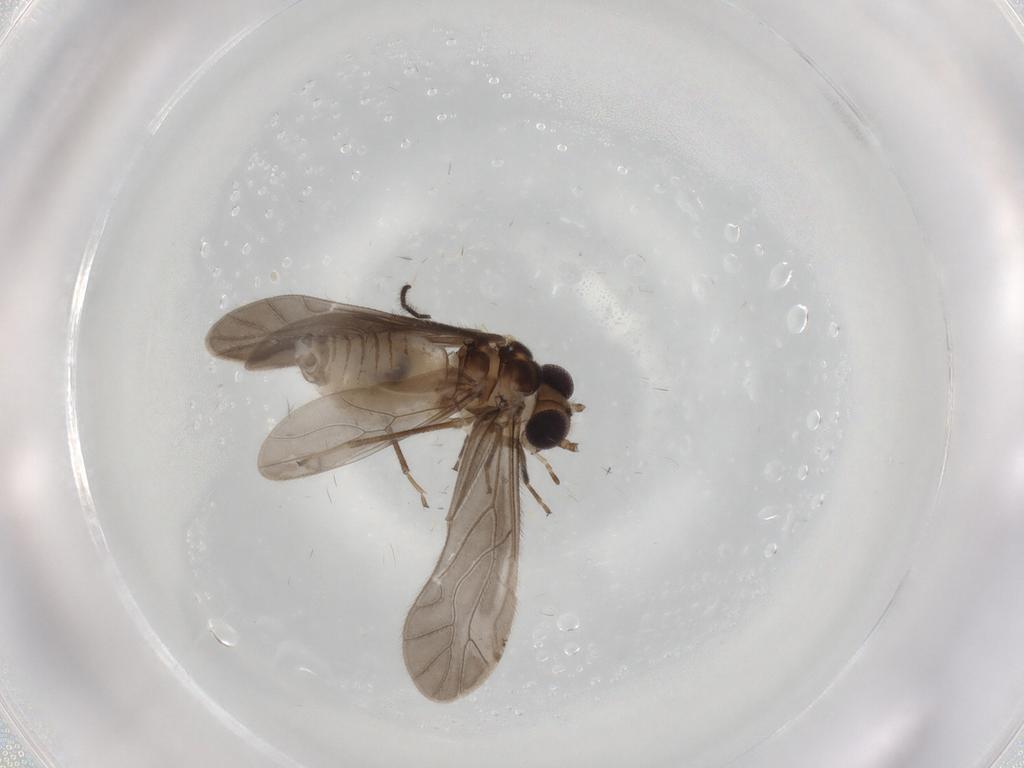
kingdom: Animalia
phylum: Arthropoda
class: Insecta
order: Psocodea
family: Caeciliusidae
